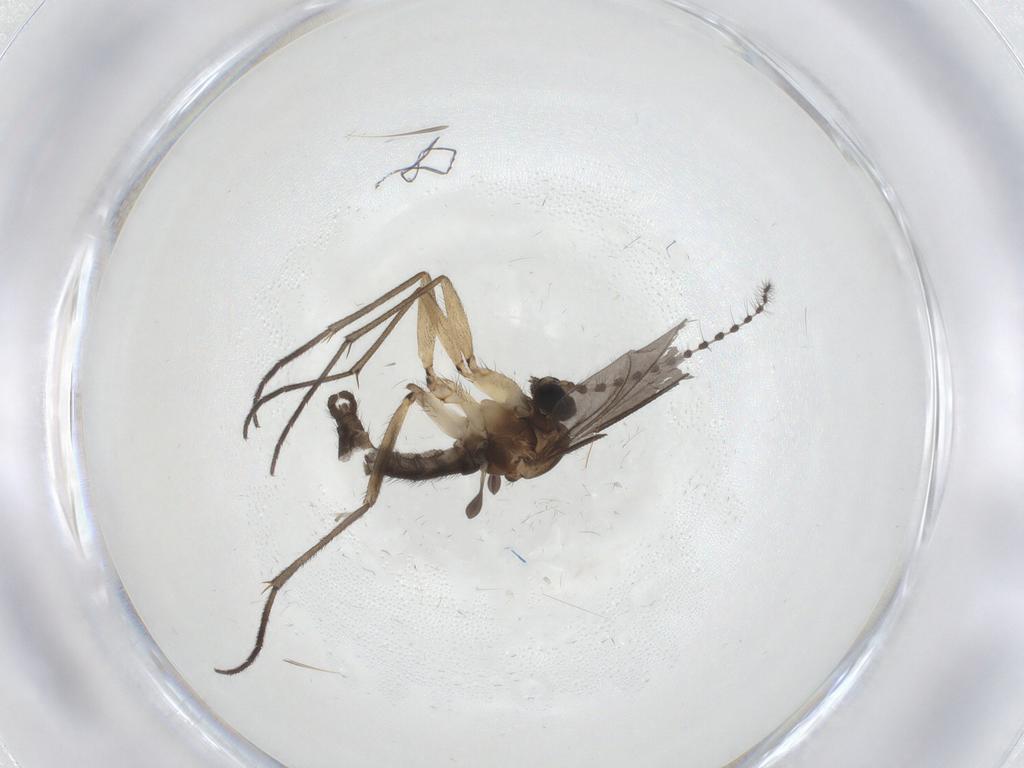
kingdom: Animalia
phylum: Arthropoda
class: Insecta
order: Diptera
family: Sciaridae
